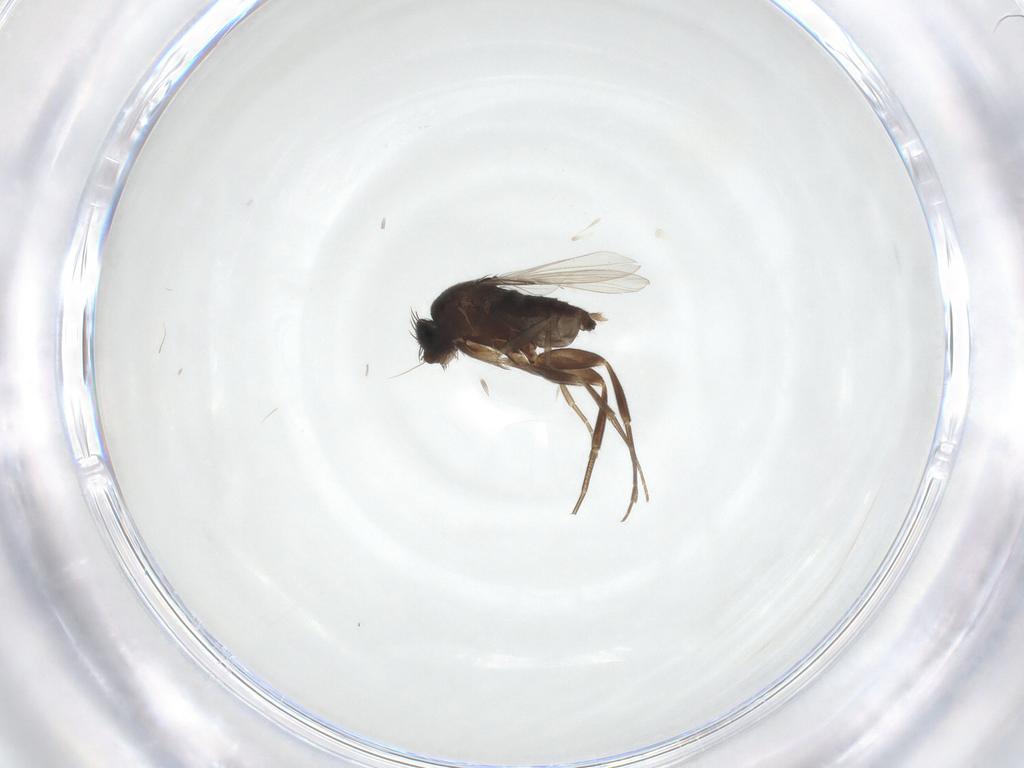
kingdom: Animalia
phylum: Arthropoda
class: Insecta
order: Diptera
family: Phoridae
